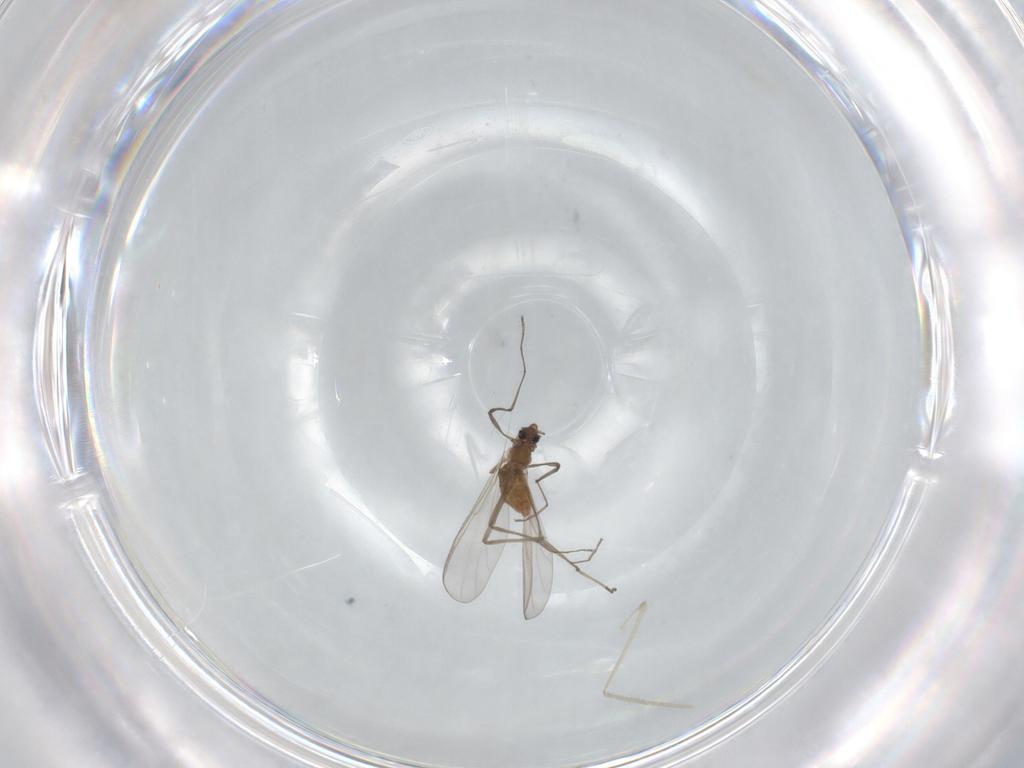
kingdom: Animalia
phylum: Arthropoda
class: Insecta
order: Diptera
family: Chironomidae
